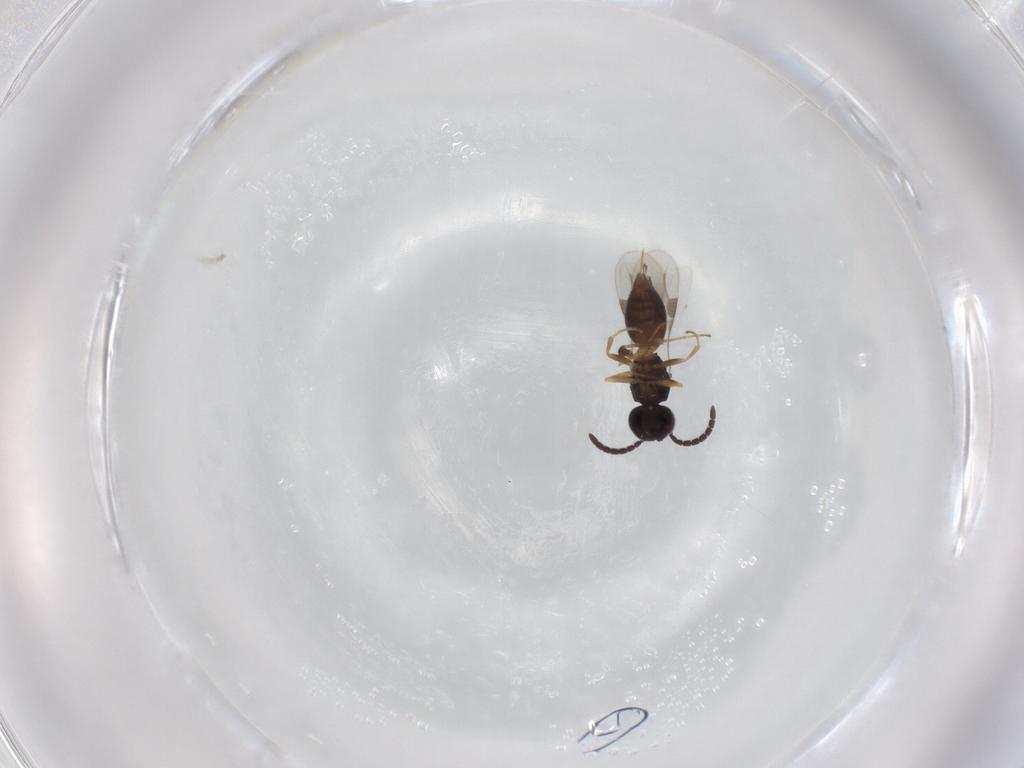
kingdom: Animalia
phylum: Arthropoda
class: Insecta
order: Hymenoptera
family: Megaspilidae
